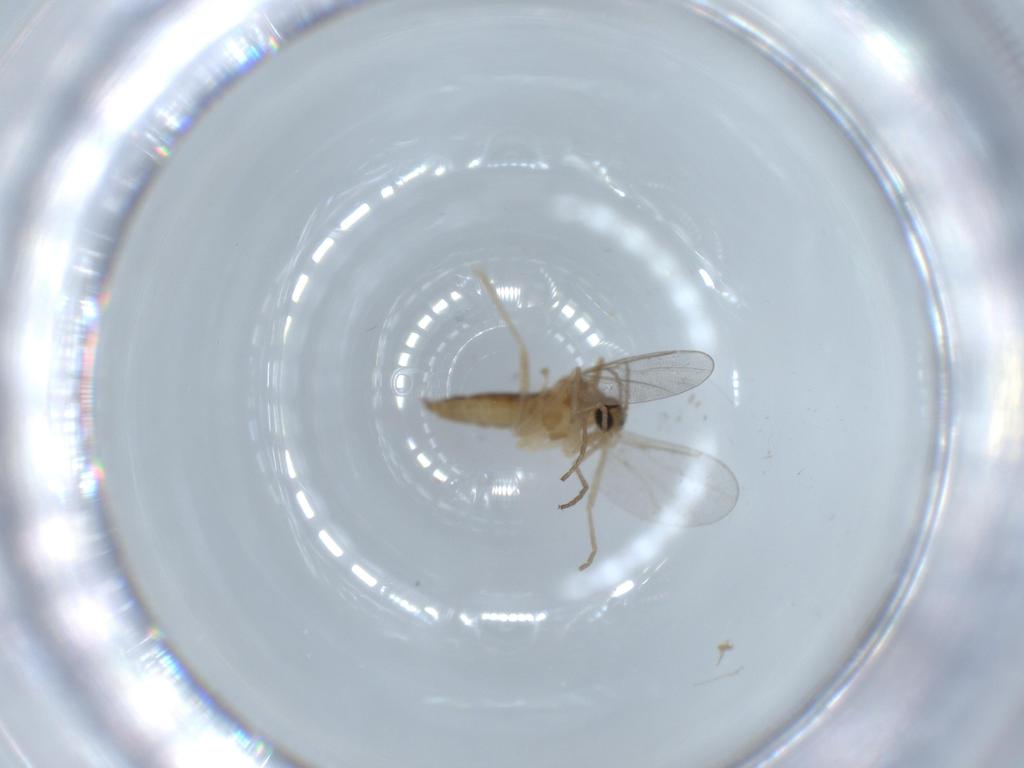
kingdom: Animalia
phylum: Arthropoda
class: Insecta
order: Diptera
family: Cecidomyiidae
